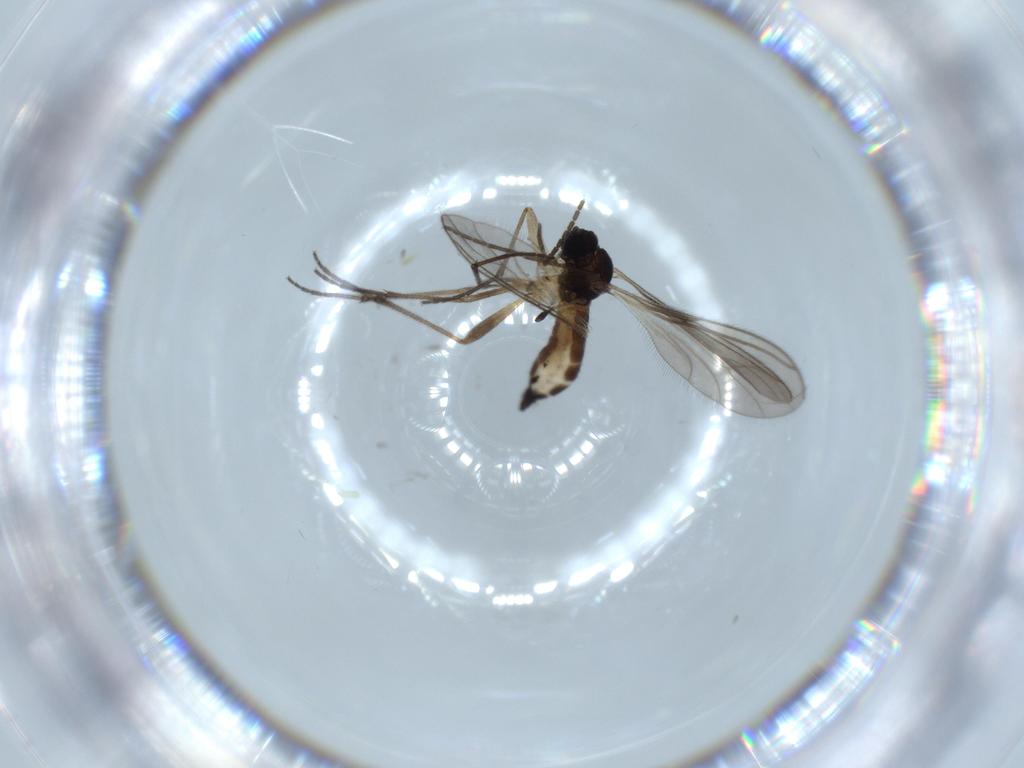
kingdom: Animalia
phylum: Arthropoda
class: Insecta
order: Diptera
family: Sciaridae
